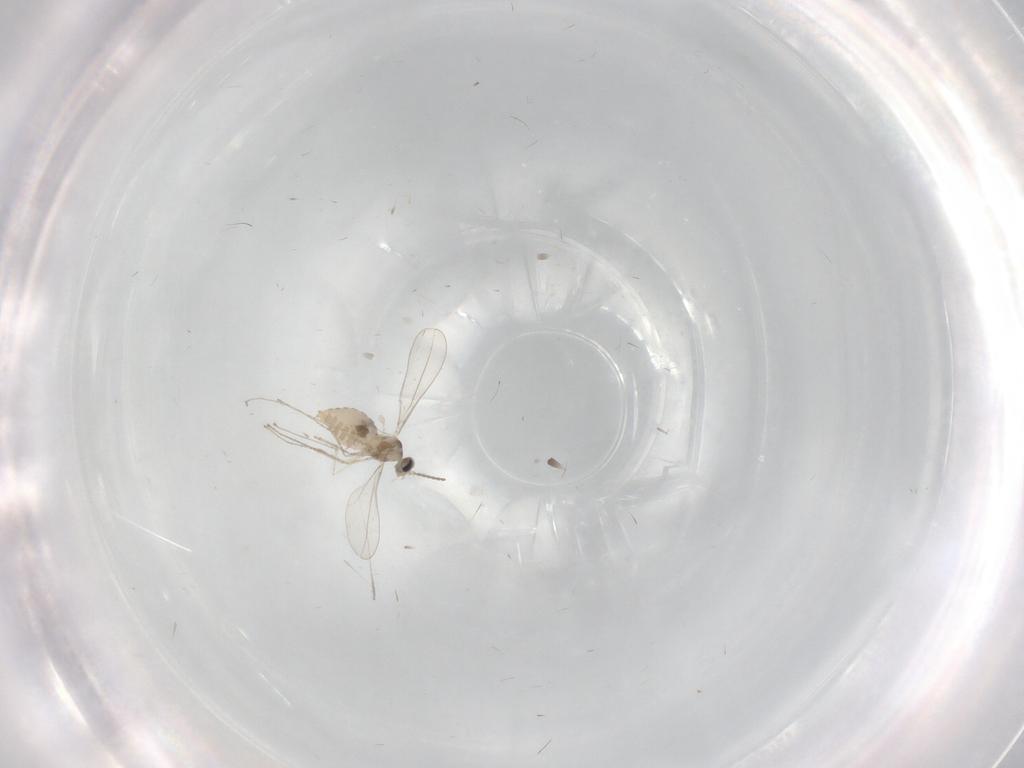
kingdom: Animalia
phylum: Arthropoda
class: Insecta
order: Diptera
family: Cecidomyiidae
